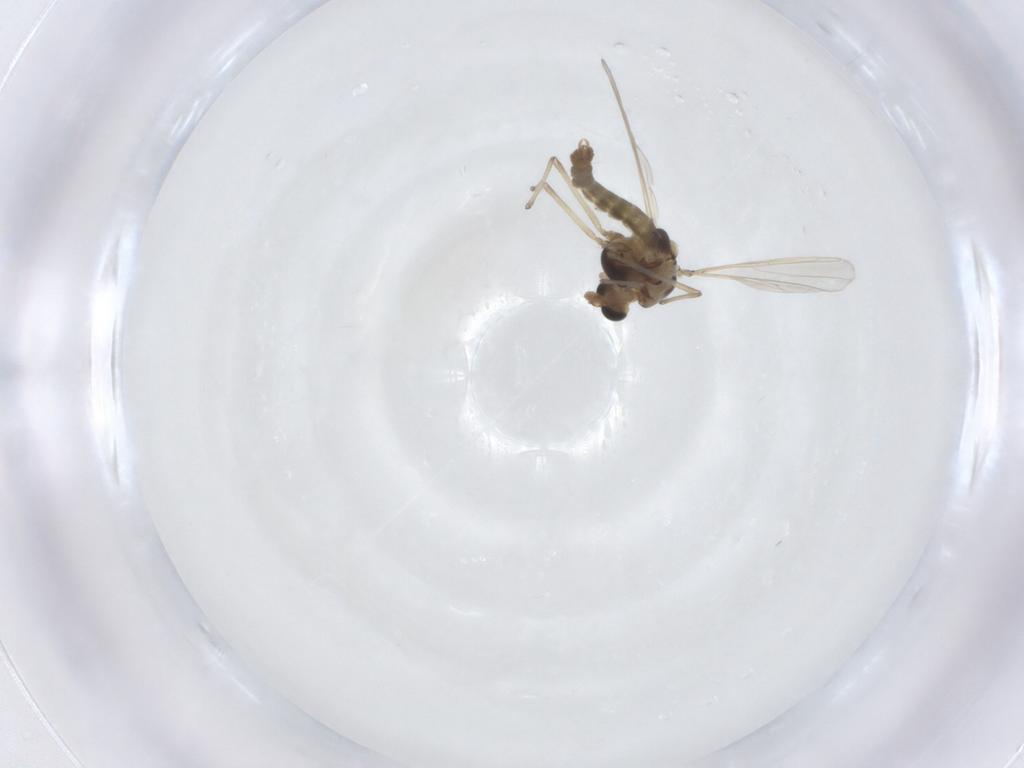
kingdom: Animalia
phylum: Arthropoda
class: Insecta
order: Diptera
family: Chironomidae
